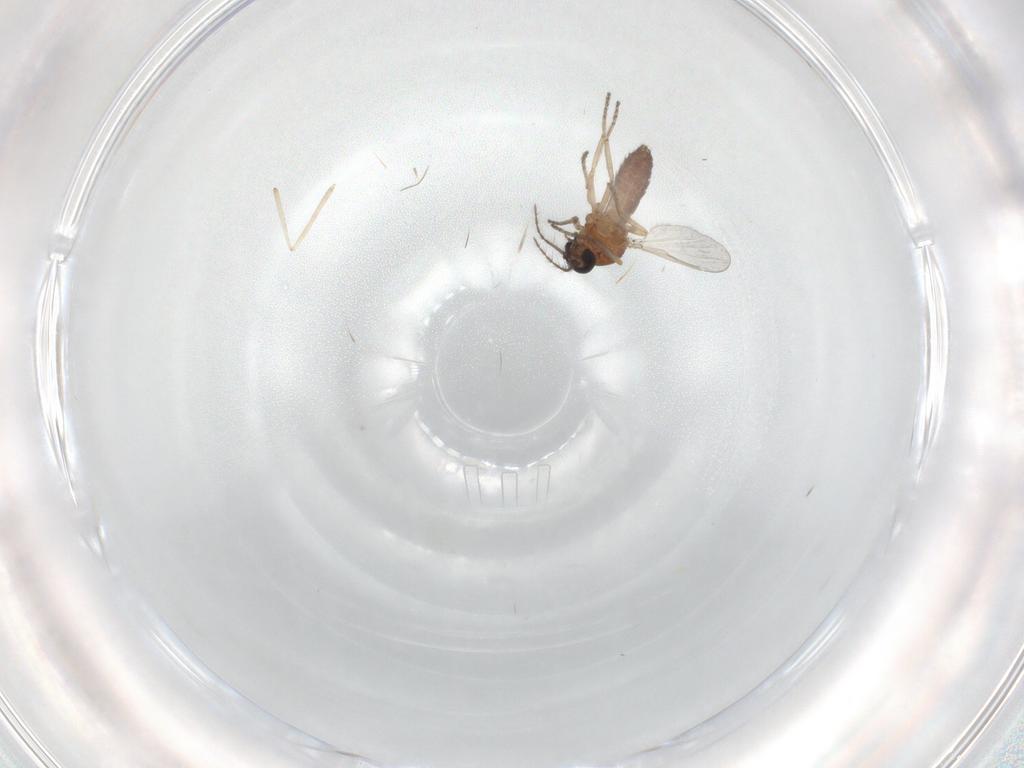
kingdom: Animalia
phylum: Arthropoda
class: Insecta
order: Diptera
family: Ceratopogonidae
